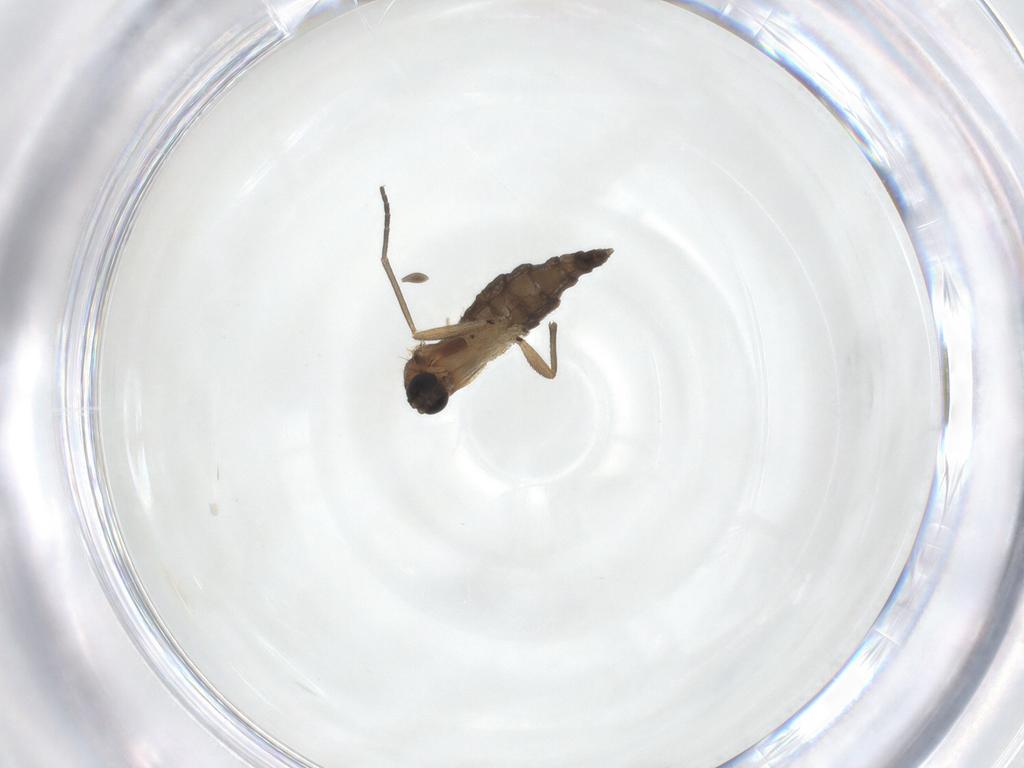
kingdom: Animalia
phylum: Arthropoda
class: Insecta
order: Diptera
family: Sciaridae
